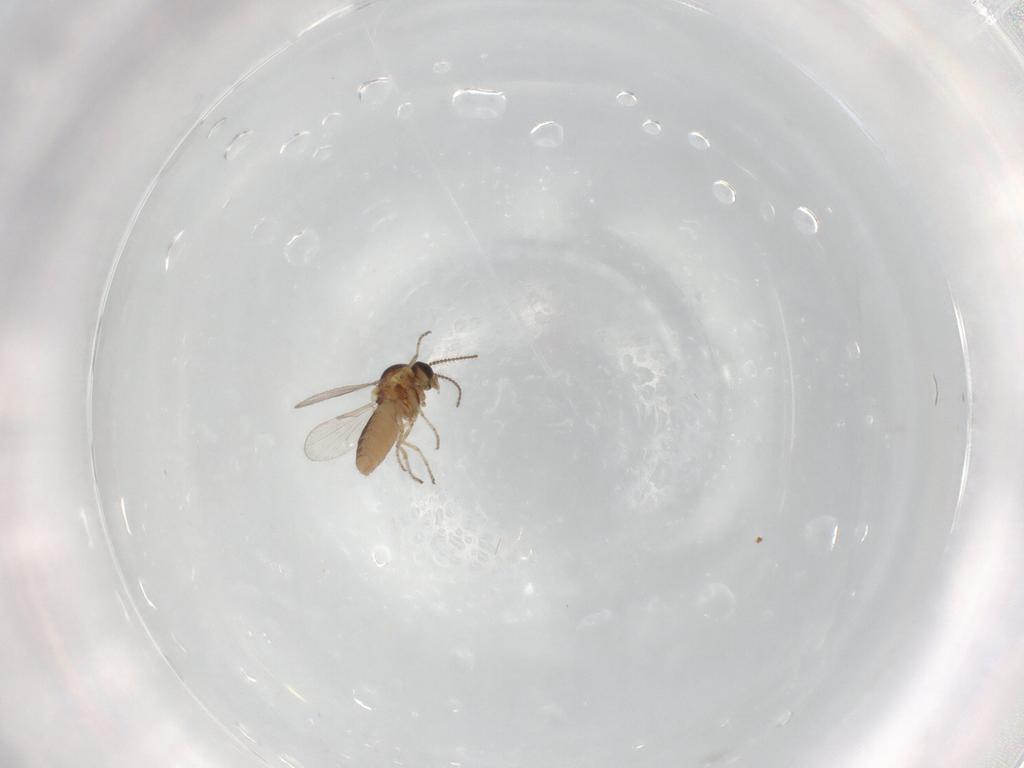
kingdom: Animalia
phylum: Arthropoda
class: Insecta
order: Diptera
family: Ceratopogonidae
